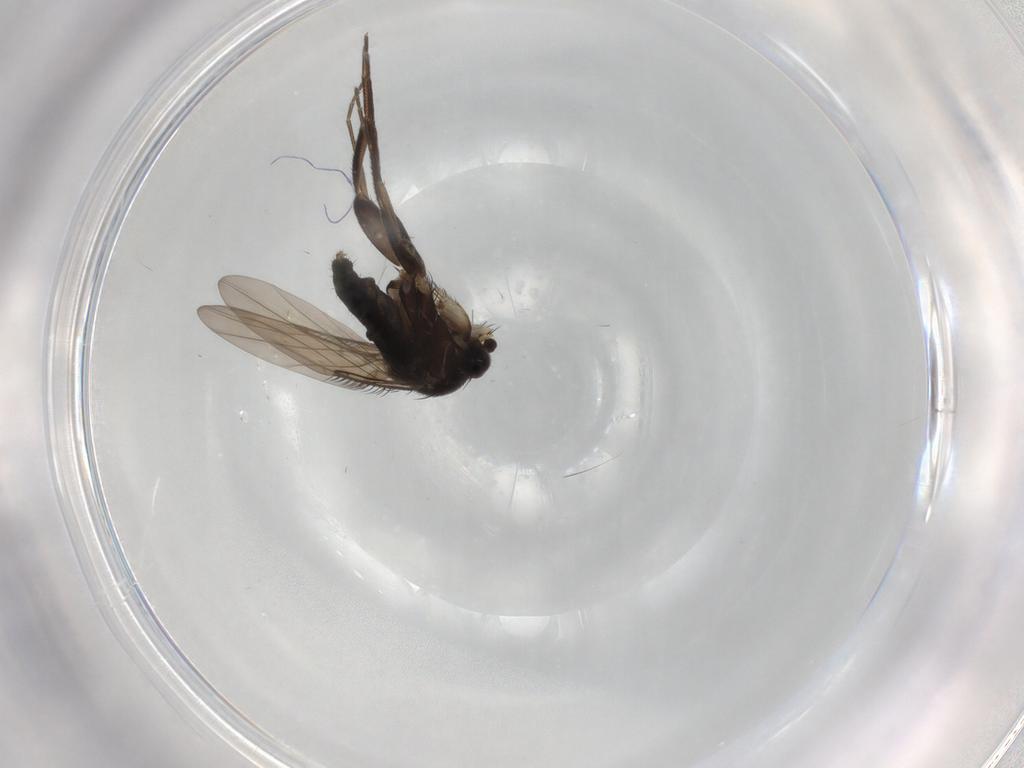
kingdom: Animalia
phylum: Arthropoda
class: Insecta
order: Diptera
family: Phoridae
